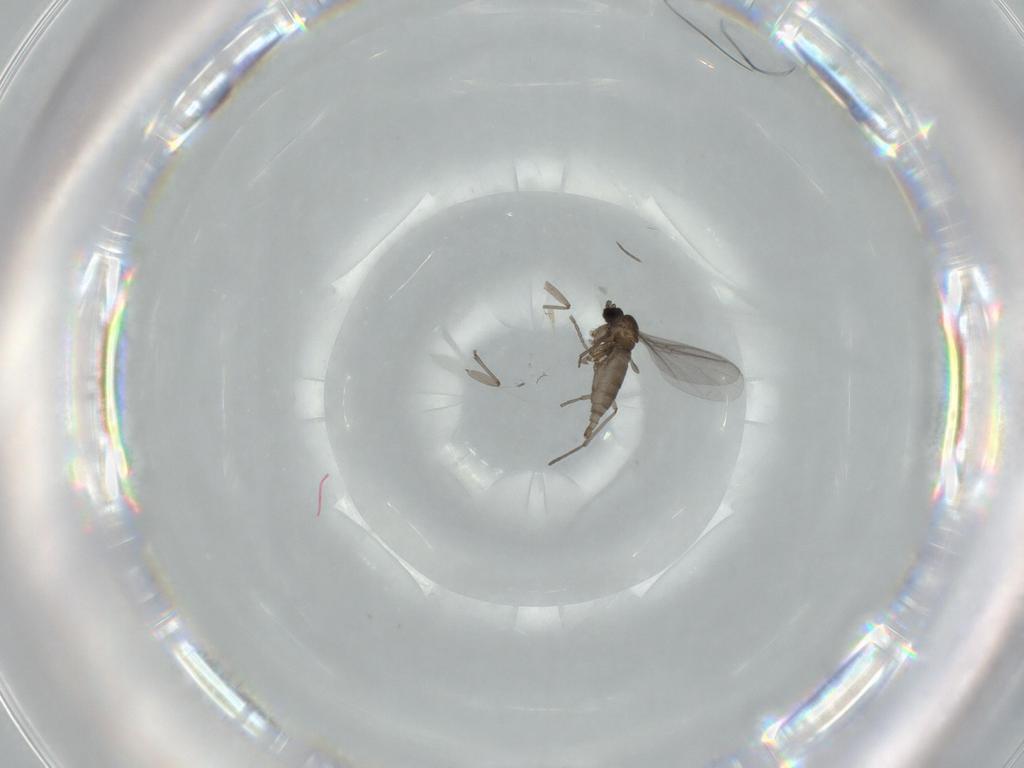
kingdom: Animalia
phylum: Arthropoda
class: Insecta
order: Diptera
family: Sciaridae
